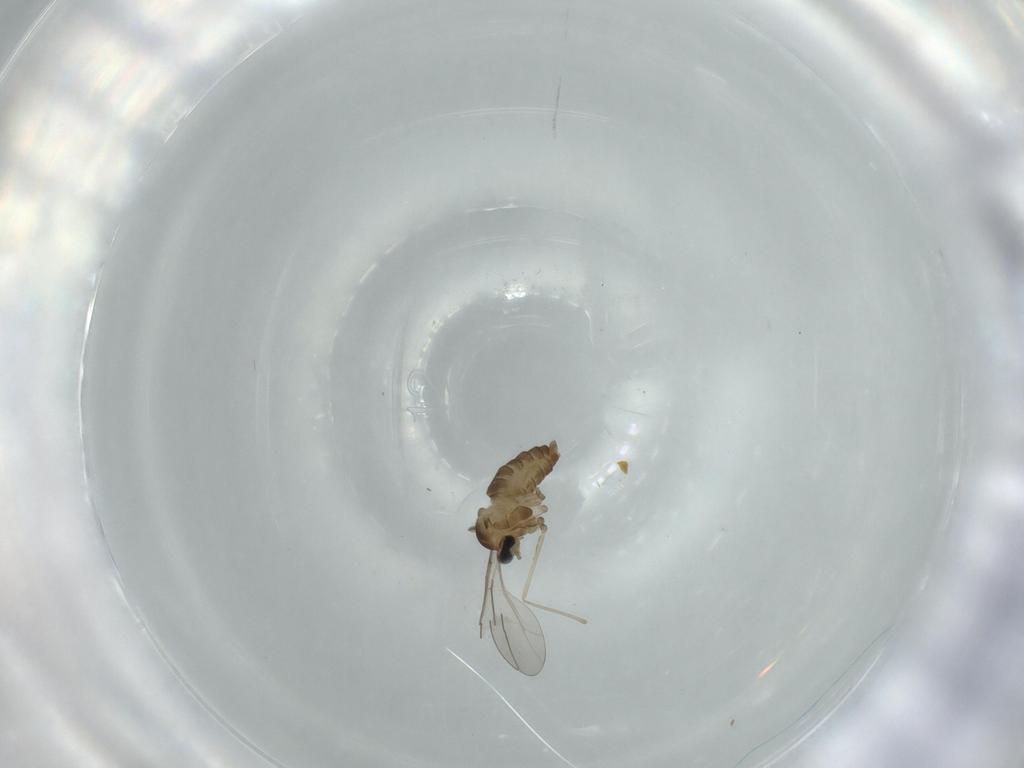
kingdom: Animalia
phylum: Arthropoda
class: Insecta
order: Diptera
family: Cecidomyiidae
